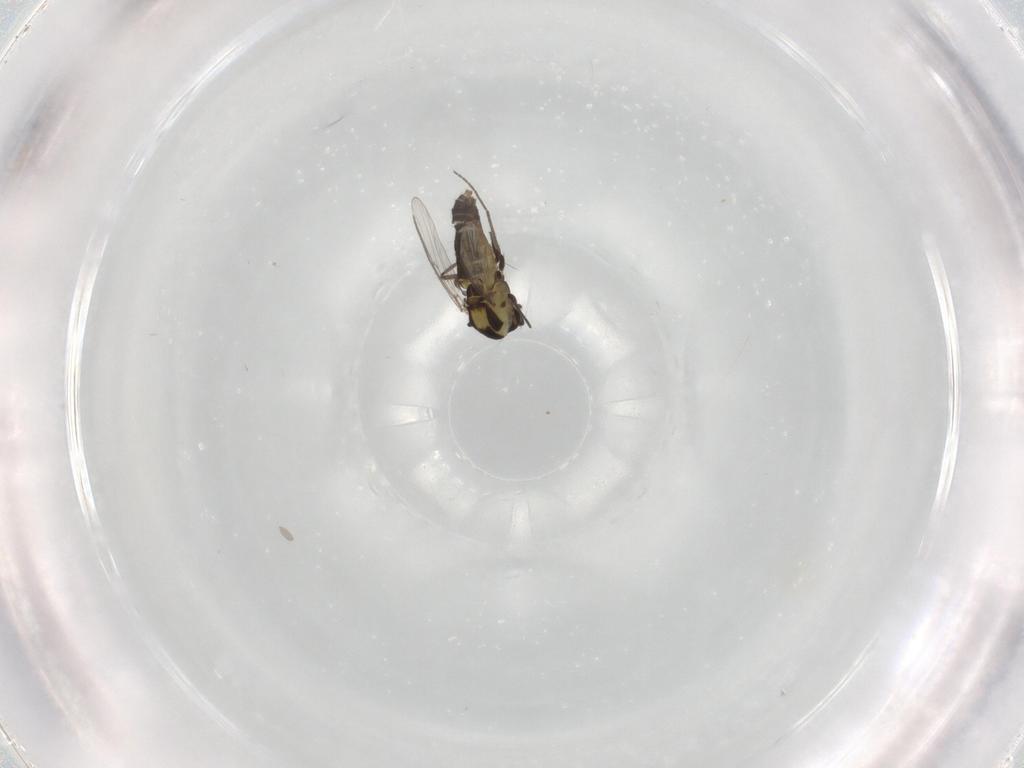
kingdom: Animalia
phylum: Arthropoda
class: Insecta
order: Diptera
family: Chironomidae
